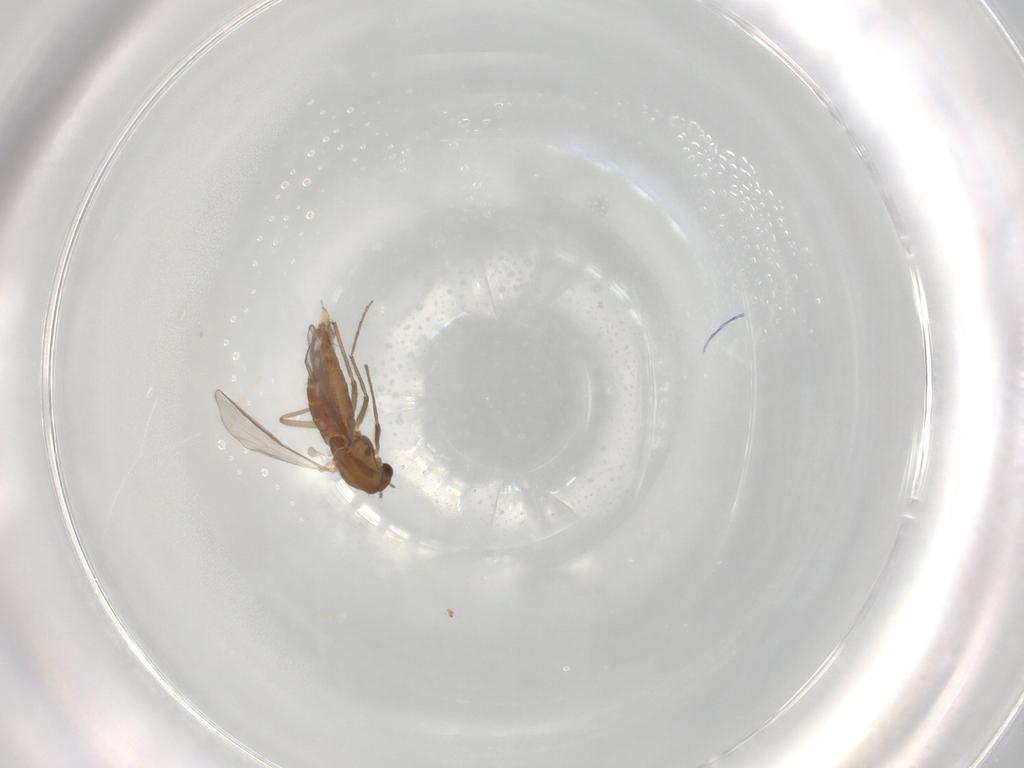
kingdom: Animalia
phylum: Arthropoda
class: Insecta
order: Diptera
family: Chironomidae
